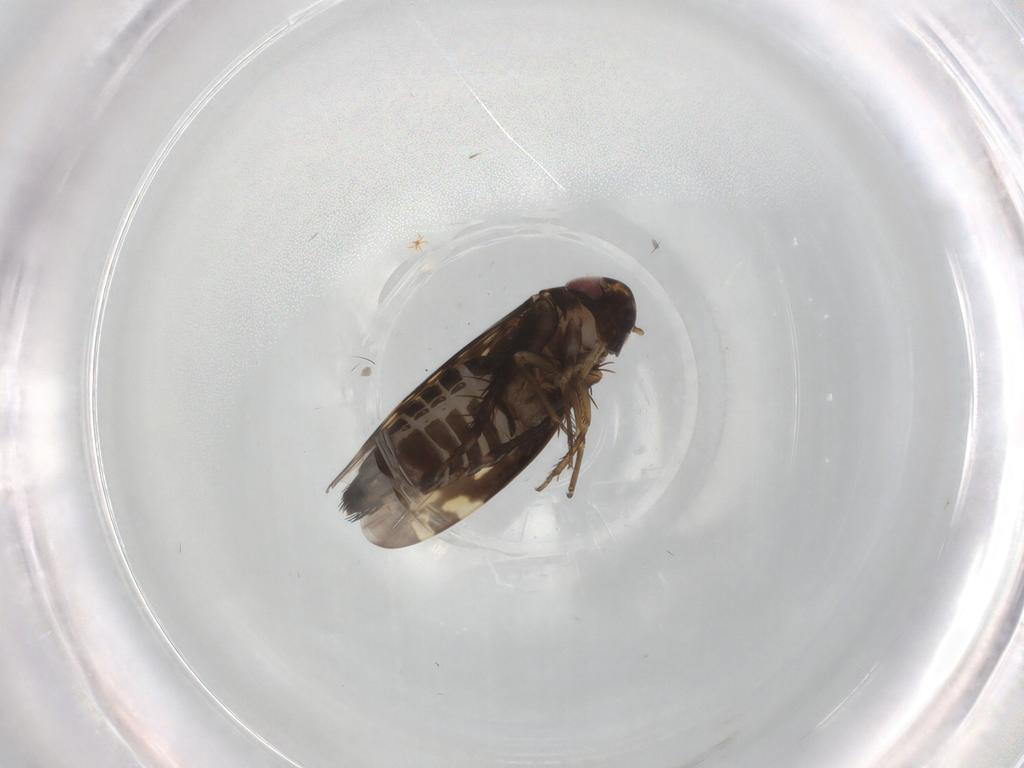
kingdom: Animalia
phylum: Arthropoda
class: Insecta
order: Hemiptera
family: Cicadellidae
